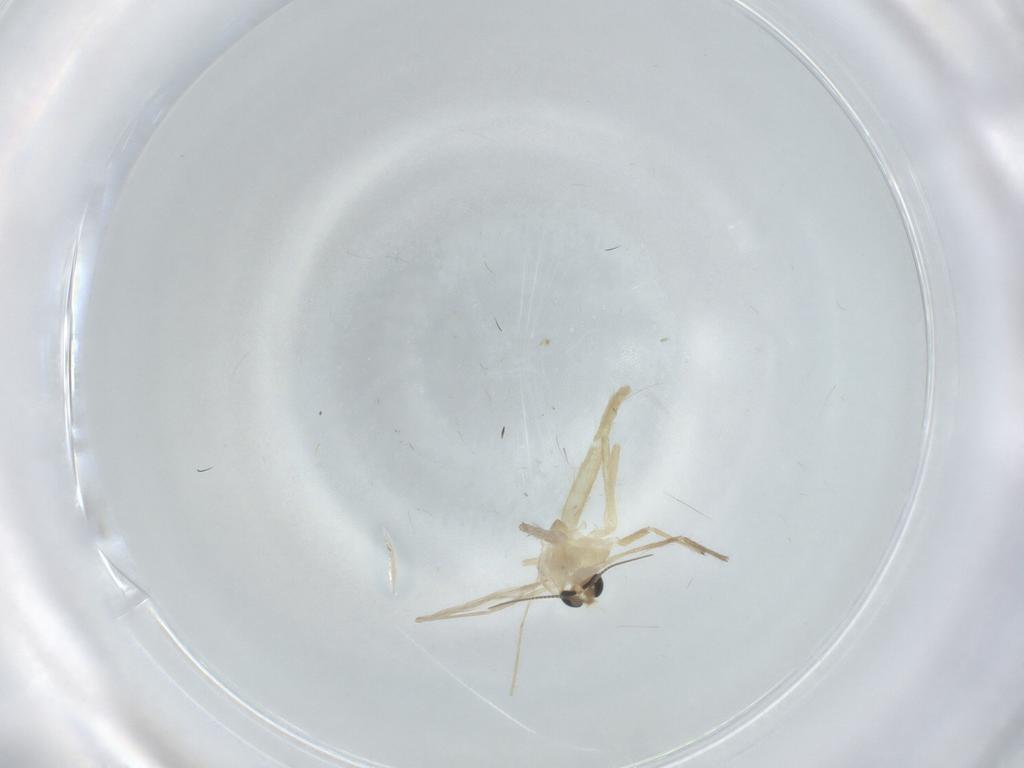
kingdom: Animalia
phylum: Arthropoda
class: Insecta
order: Diptera
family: Chironomidae
